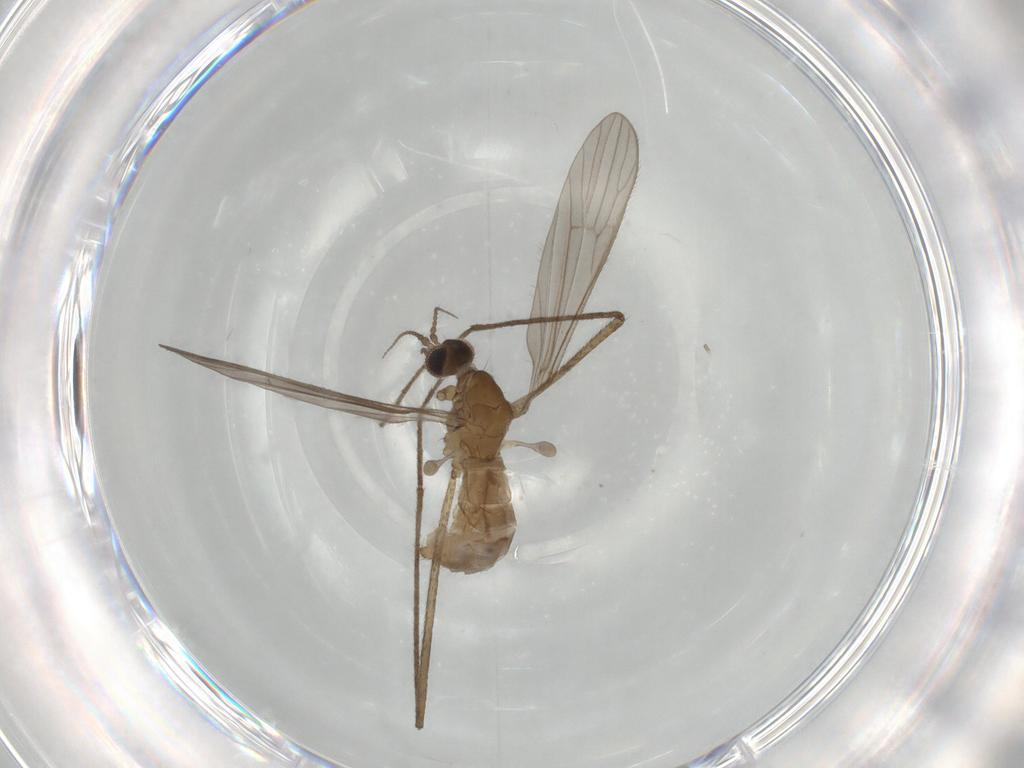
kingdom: Animalia
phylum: Arthropoda
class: Insecta
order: Diptera
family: Limoniidae
